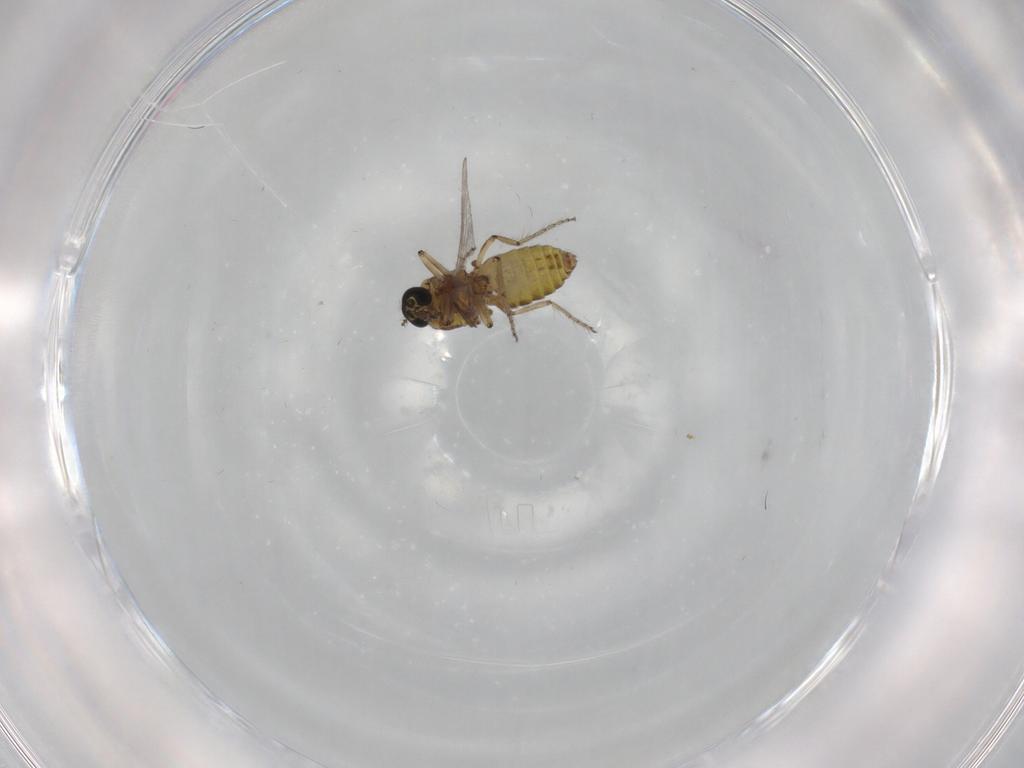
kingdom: Animalia
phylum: Arthropoda
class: Insecta
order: Diptera
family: Ceratopogonidae
